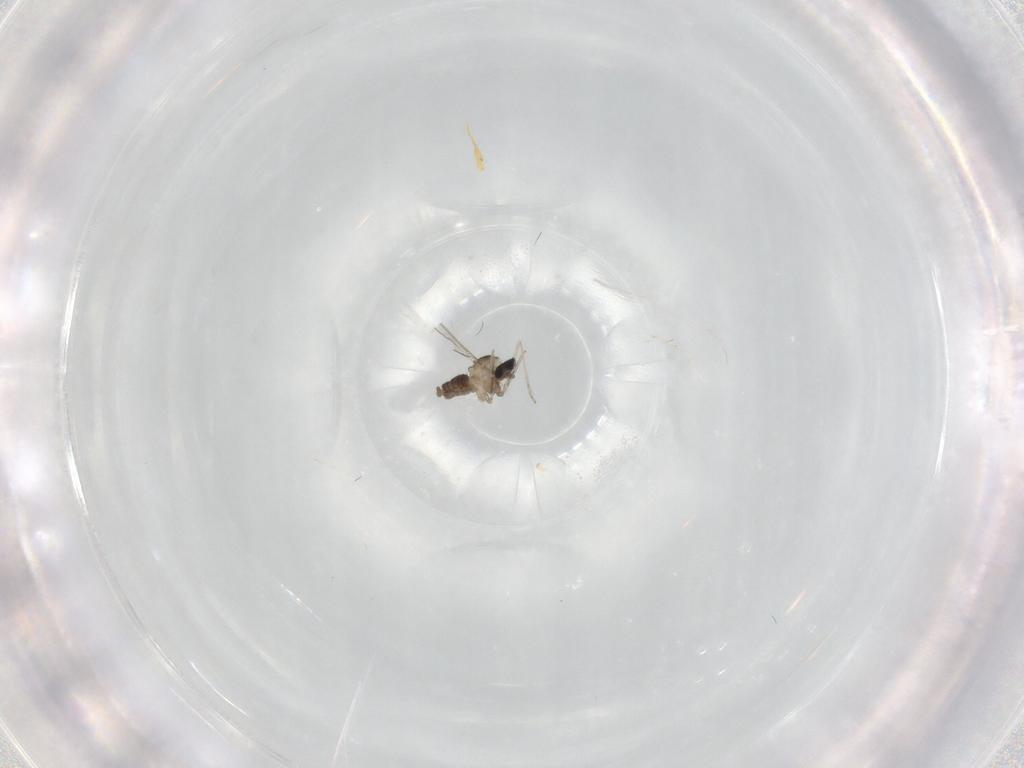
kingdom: Animalia
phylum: Arthropoda
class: Insecta
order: Diptera
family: Cecidomyiidae
